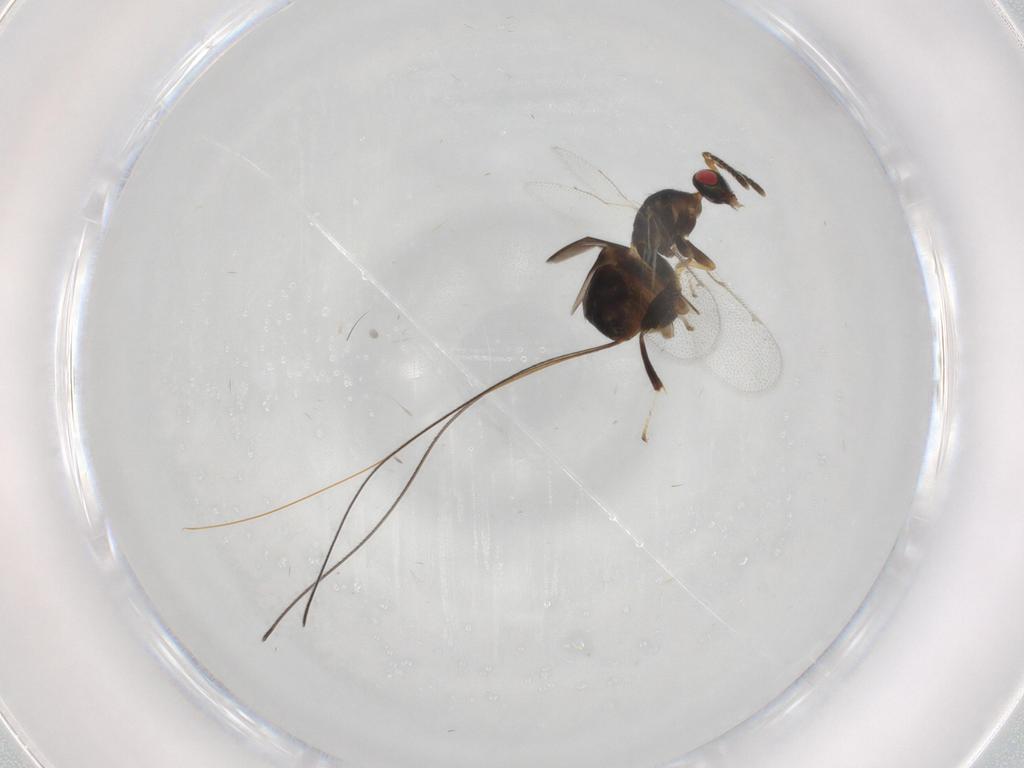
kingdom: Animalia
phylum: Arthropoda
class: Insecta
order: Hymenoptera
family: Torymidae
